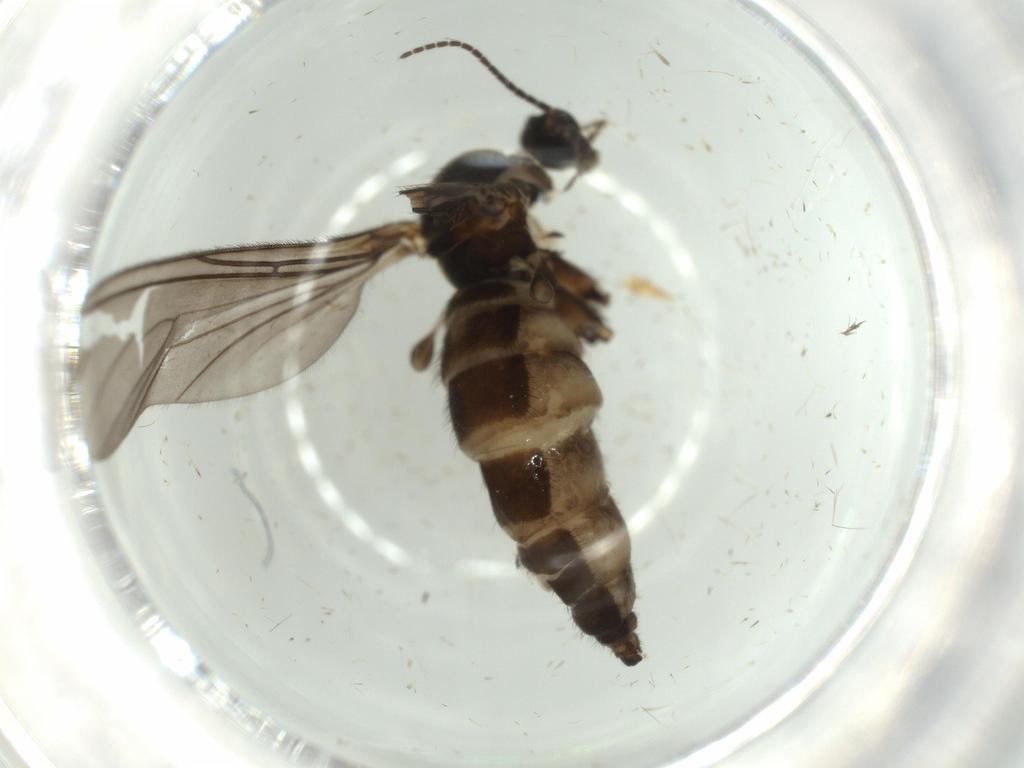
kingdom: Animalia
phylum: Arthropoda
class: Insecta
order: Diptera
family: Sciaridae
